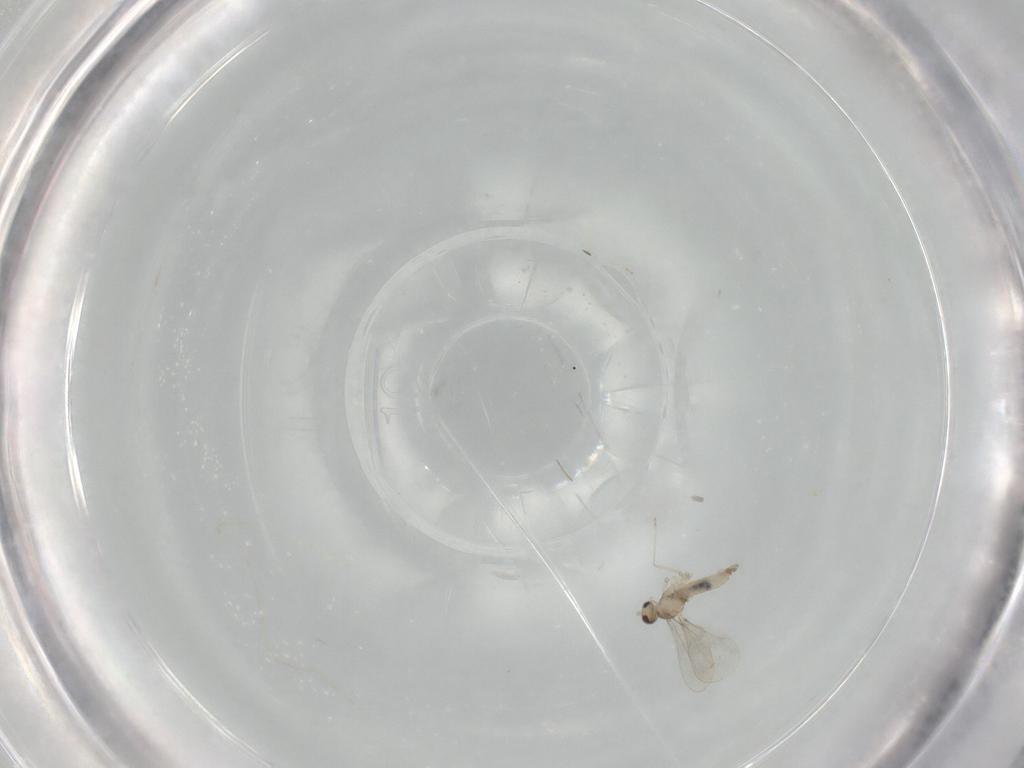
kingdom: Animalia
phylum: Arthropoda
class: Insecta
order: Diptera
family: Cecidomyiidae
